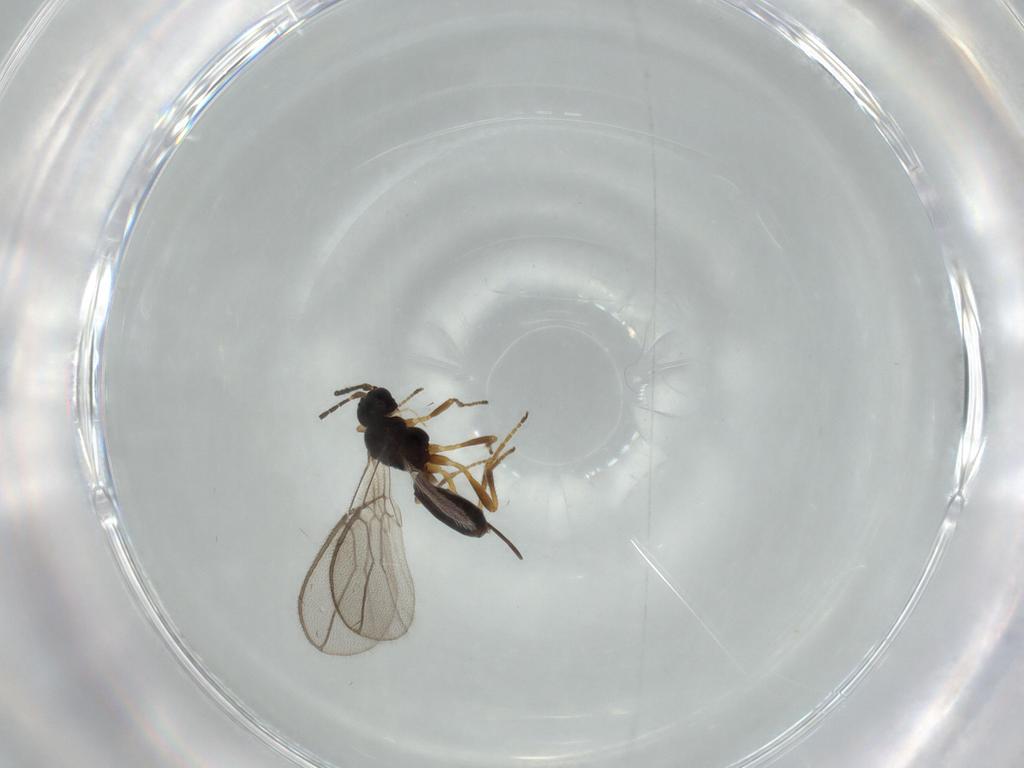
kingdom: Animalia
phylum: Arthropoda
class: Insecta
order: Hymenoptera
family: Braconidae
